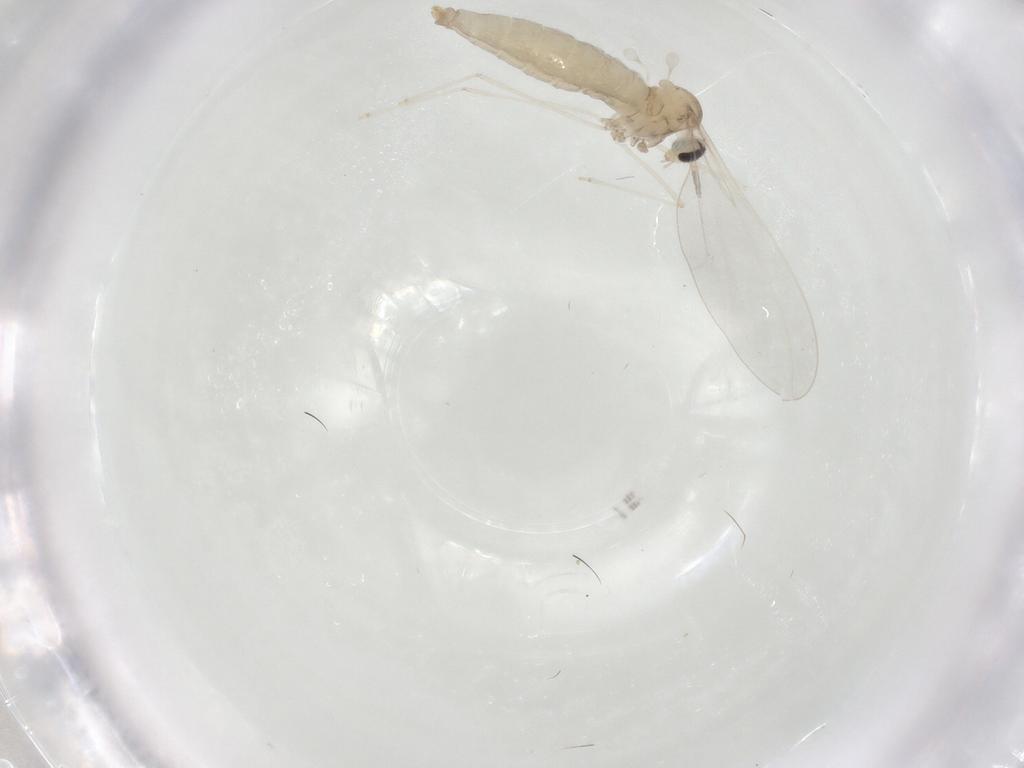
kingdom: Animalia
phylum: Arthropoda
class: Insecta
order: Diptera
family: Cecidomyiidae
